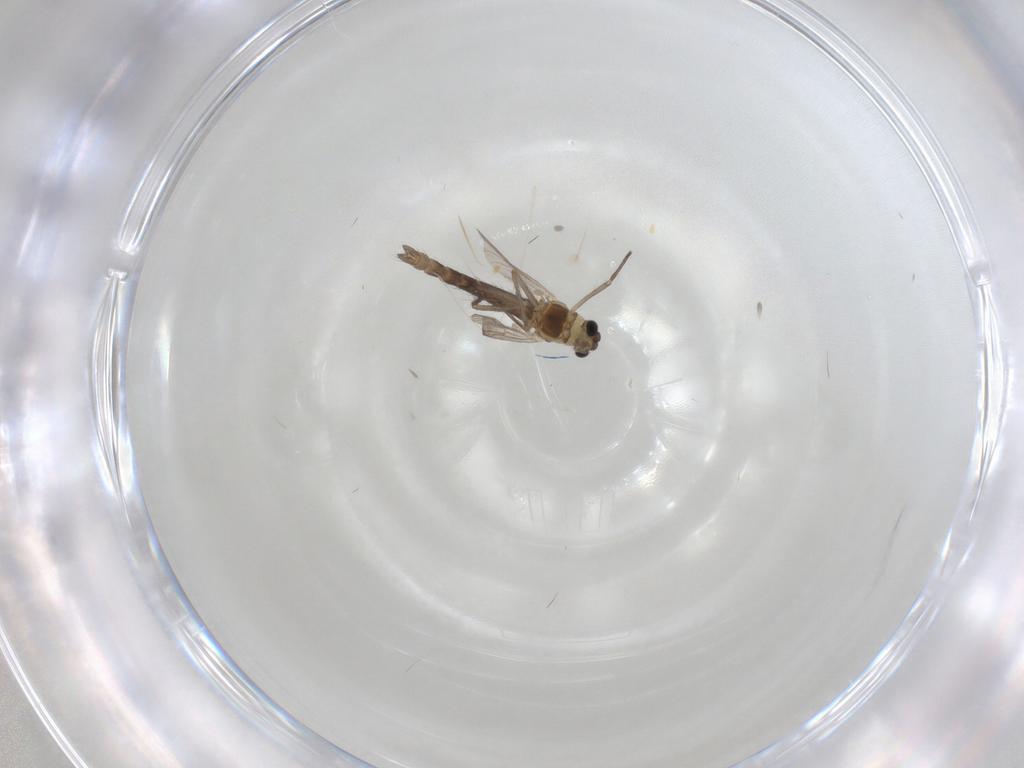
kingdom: Animalia
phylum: Arthropoda
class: Insecta
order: Diptera
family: Chironomidae
